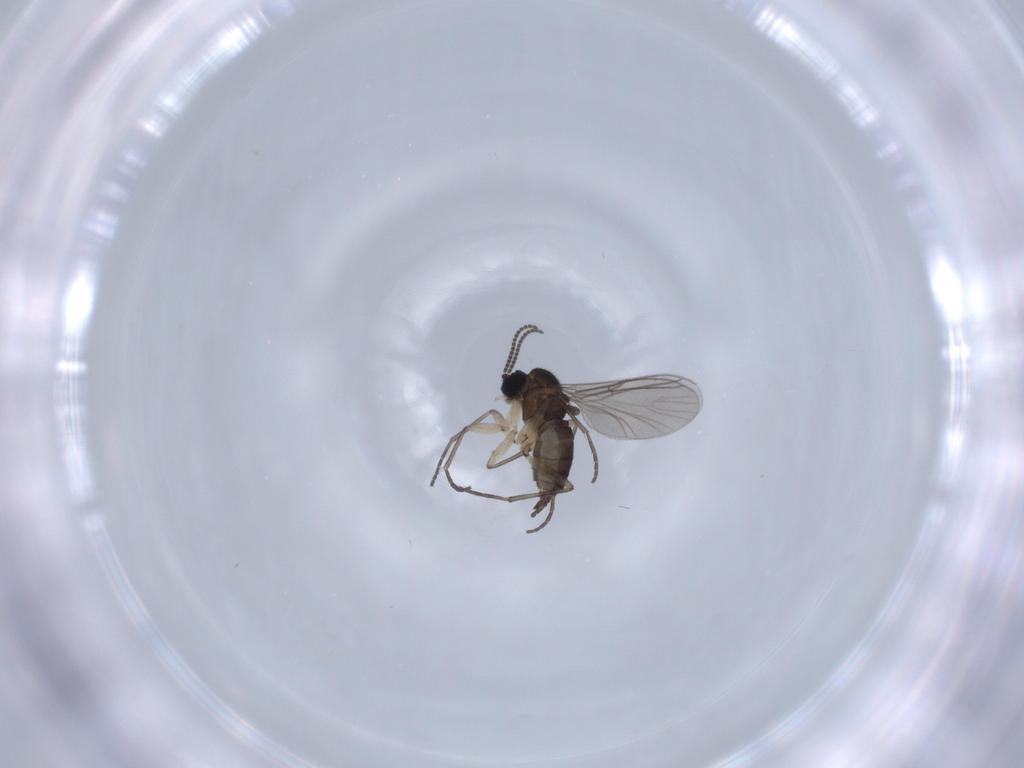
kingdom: Animalia
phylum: Arthropoda
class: Insecta
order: Diptera
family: Sciaridae
